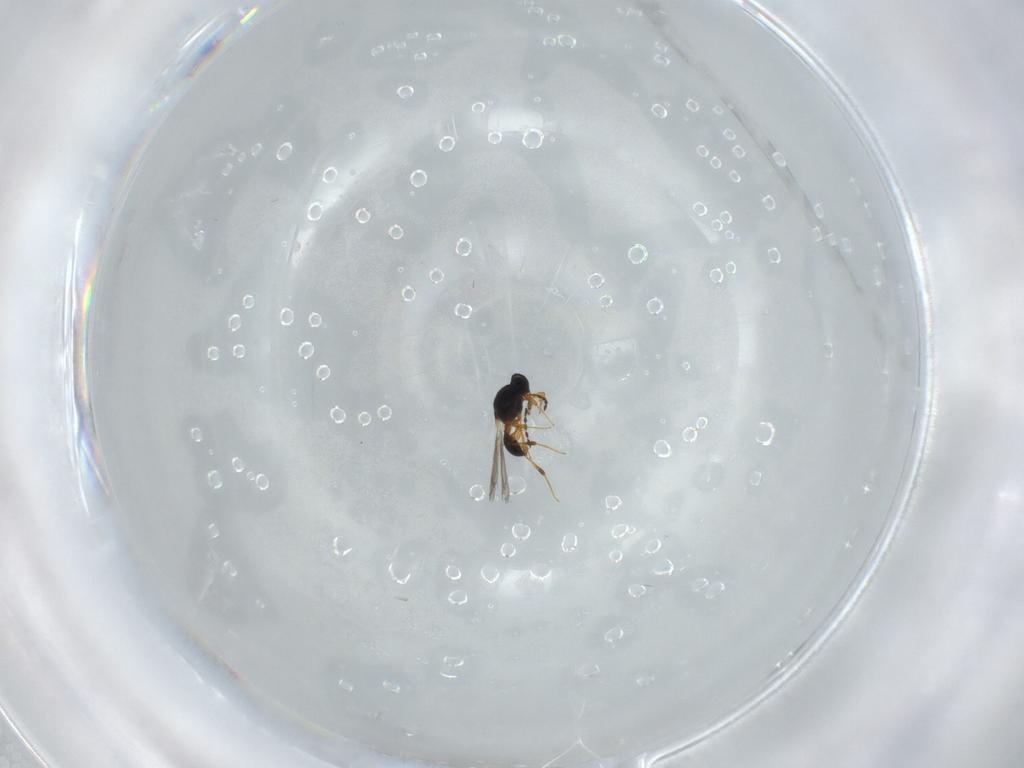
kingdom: Animalia
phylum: Arthropoda
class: Insecta
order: Hymenoptera
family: Platygastridae
